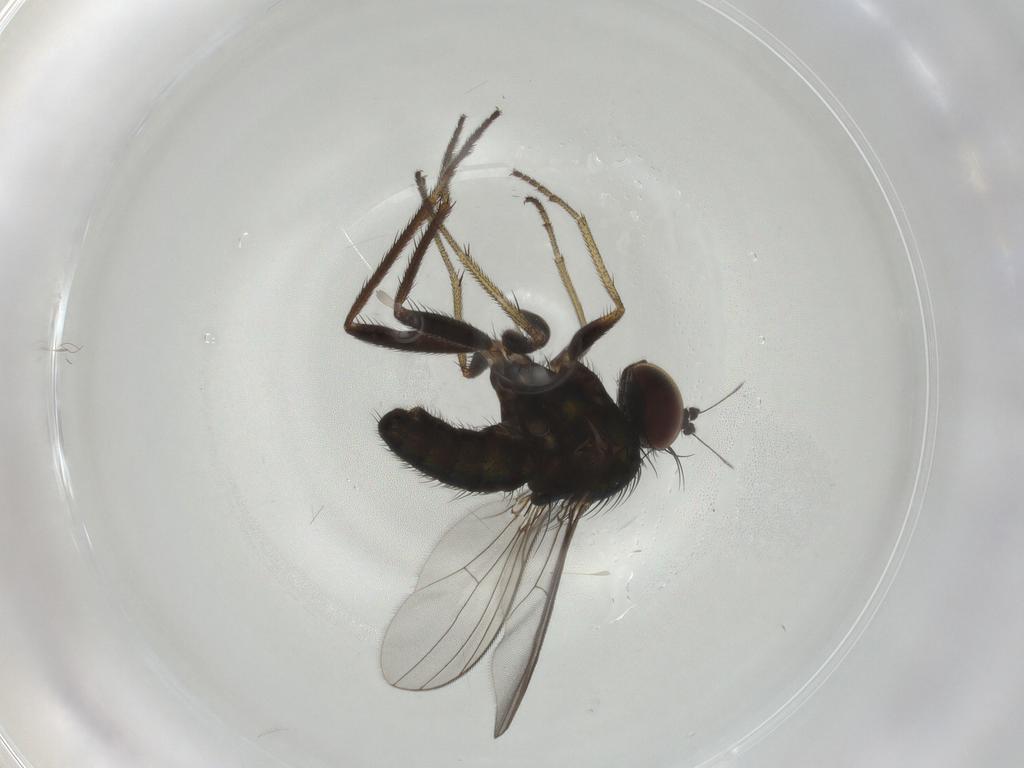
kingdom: Animalia
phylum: Arthropoda
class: Insecta
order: Diptera
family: Dolichopodidae
